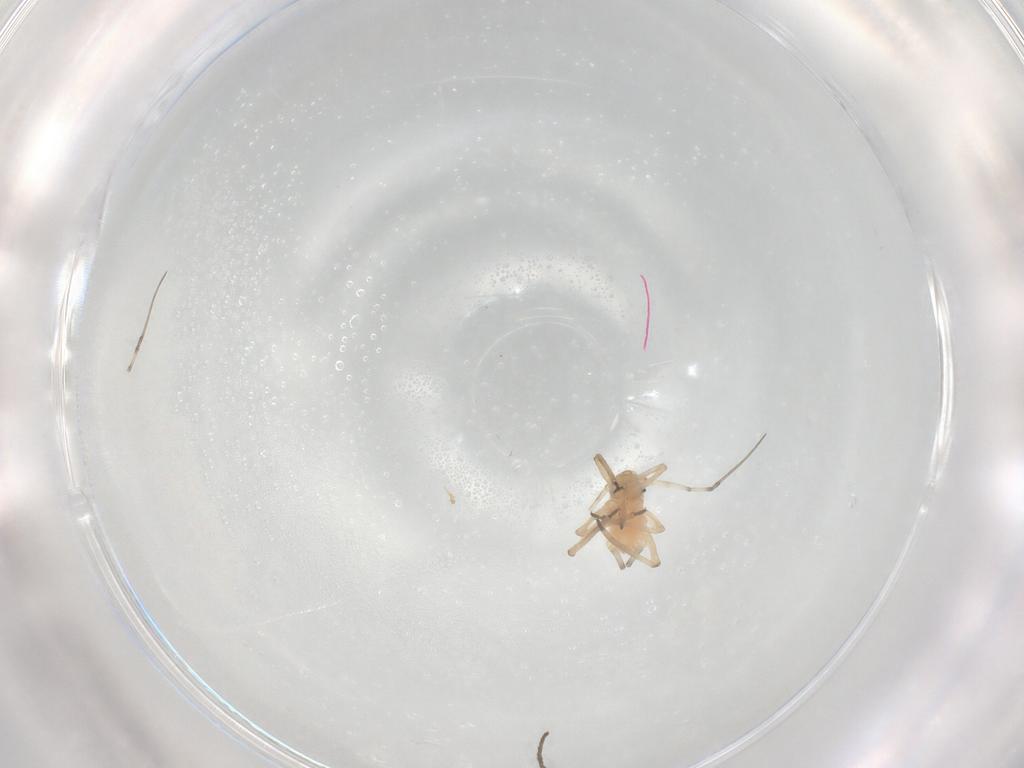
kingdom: Animalia
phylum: Arthropoda
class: Insecta
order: Hemiptera
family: Aphididae
